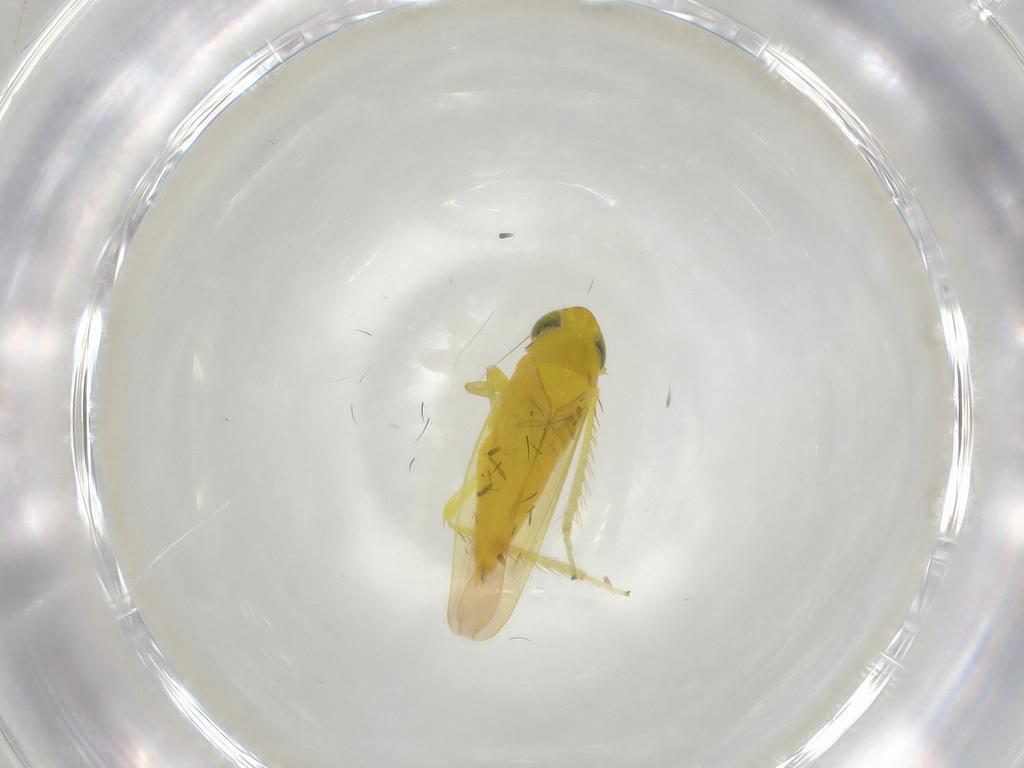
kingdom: Animalia
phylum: Arthropoda
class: Insecta
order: Hemiptera
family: Cicadellidae
